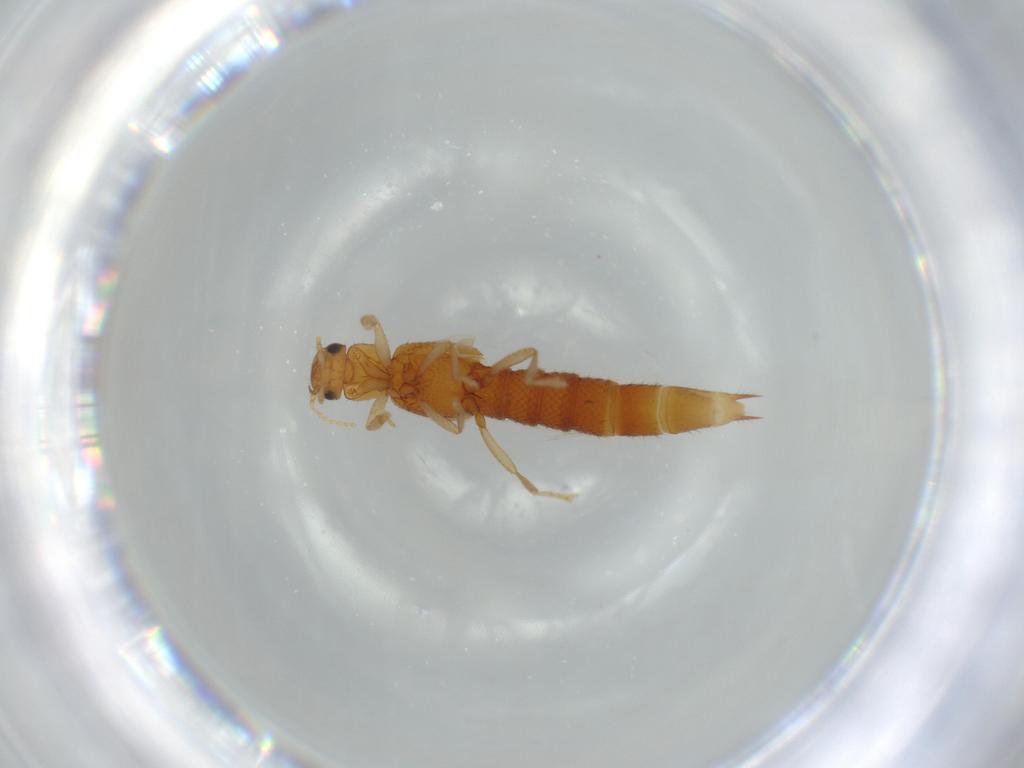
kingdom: Animalia
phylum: Arthropoda
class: Insecta
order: Coleoptera
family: Staphylinidae
